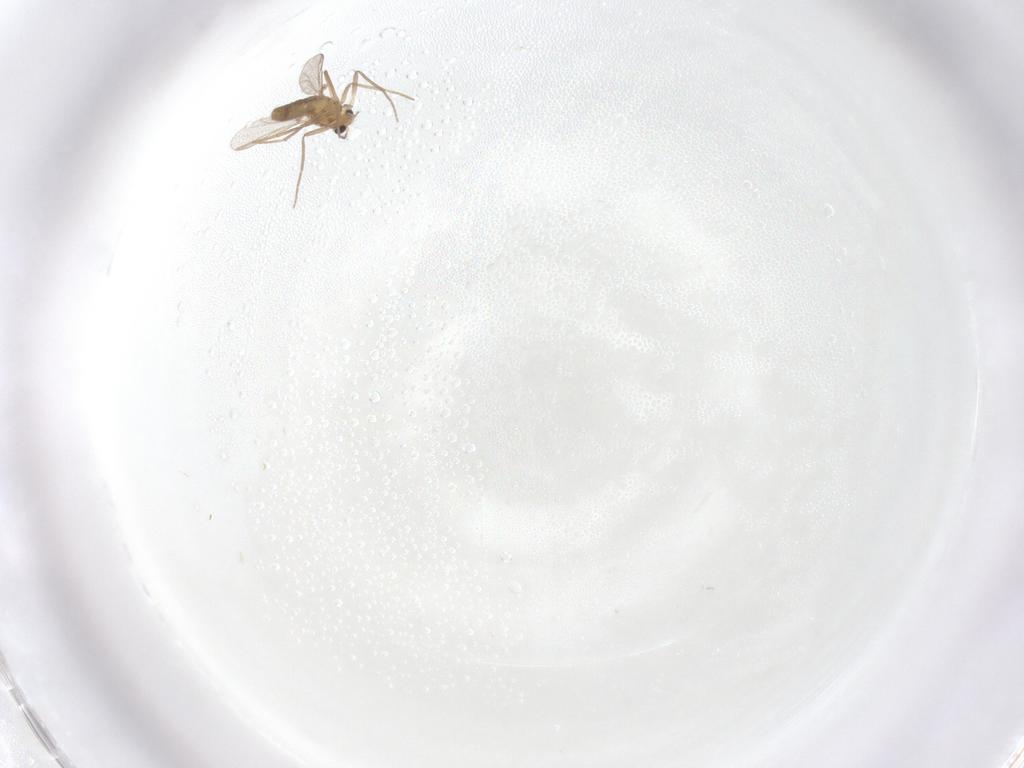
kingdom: Animalia
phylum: Arthropoda
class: Insecta
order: Diptera
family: Chironomidae
